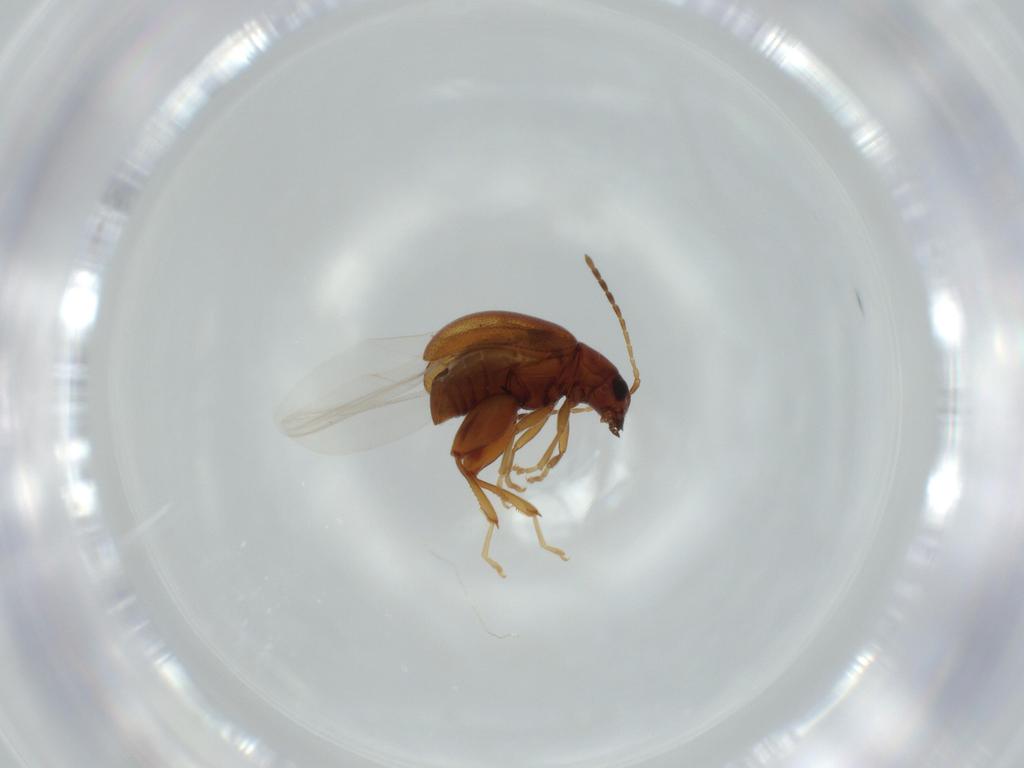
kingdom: Animalia
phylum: Arthropoda
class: Insecta
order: Coleoptera
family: Chrysomelidae
